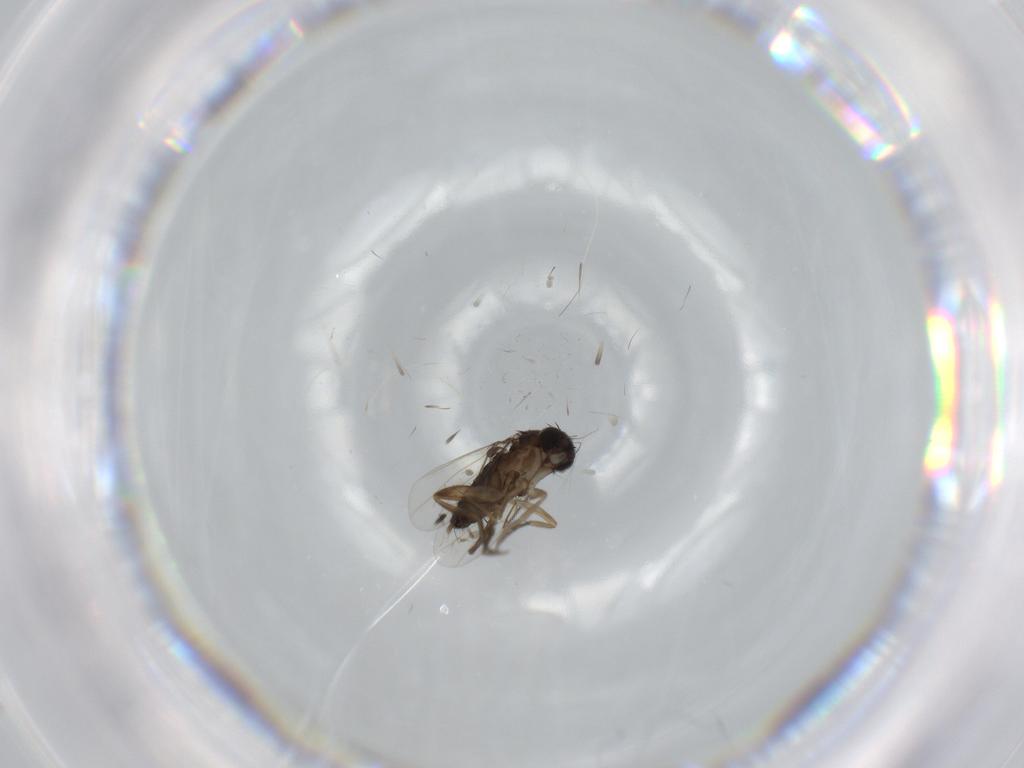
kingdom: Animalia
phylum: Arthropoda
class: Insecta
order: Diptera
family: Phoridae
